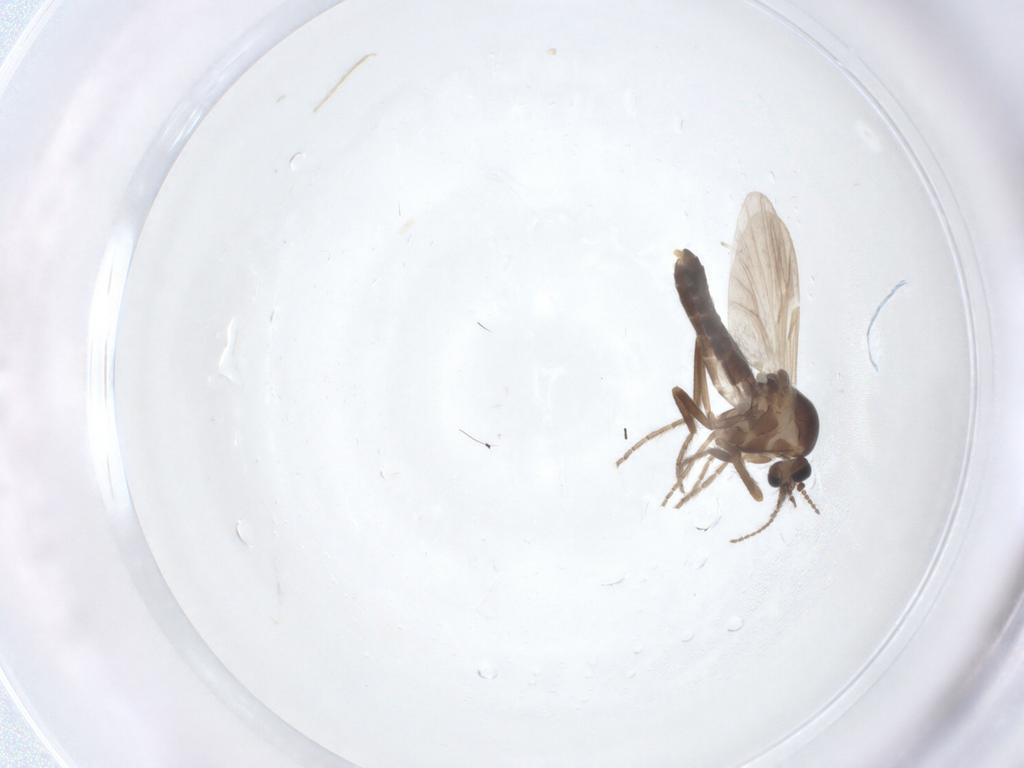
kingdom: Animalia
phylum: Arthropoda
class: Insecta
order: Diptera
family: Ceratopogonidae
